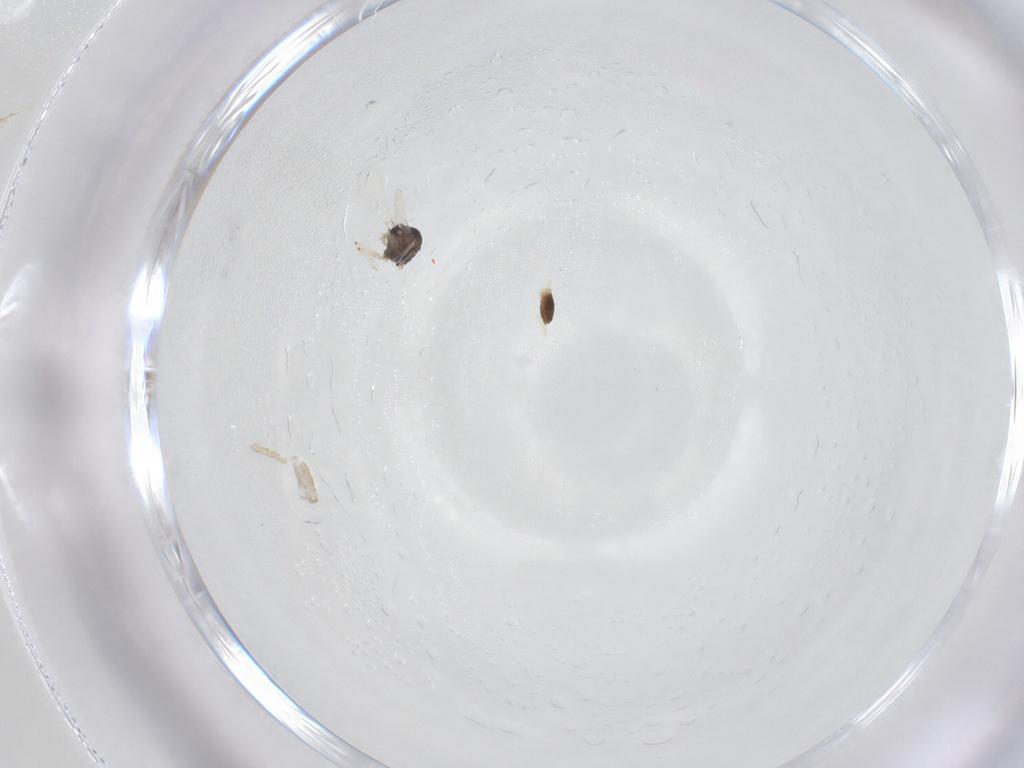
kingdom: Animalia
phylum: Arthropoda
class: Insecta
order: Diptera
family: Chironomidae
